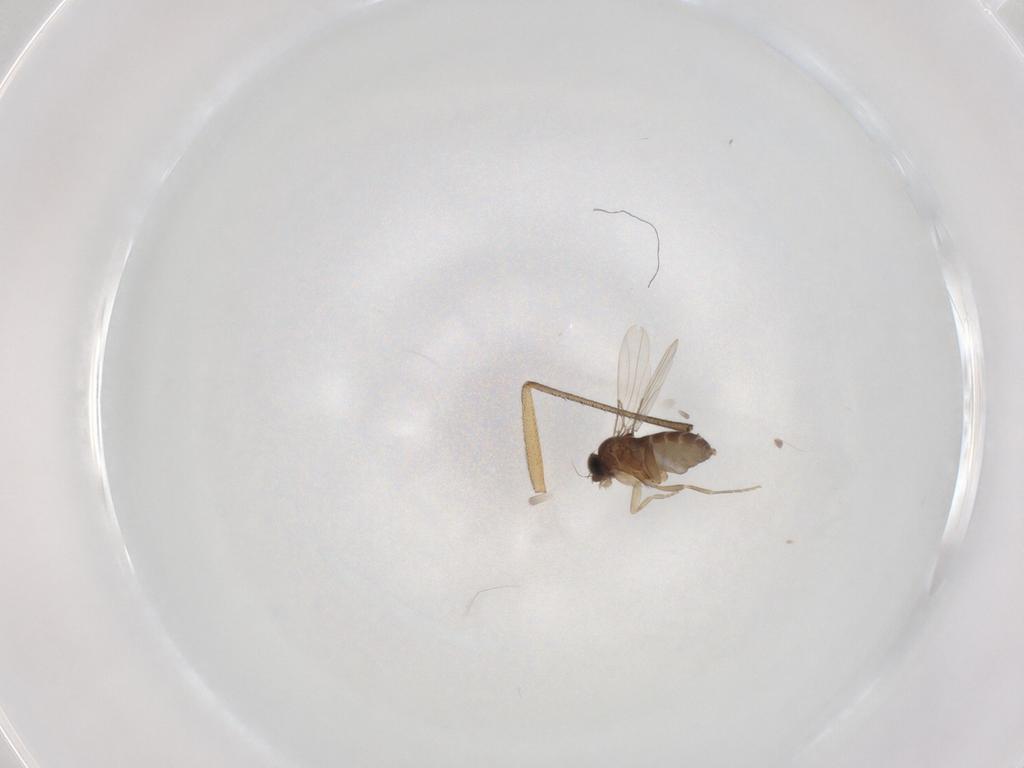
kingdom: Animalia
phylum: Arthropoda
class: Insecta
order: Diptera
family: Phoridae
